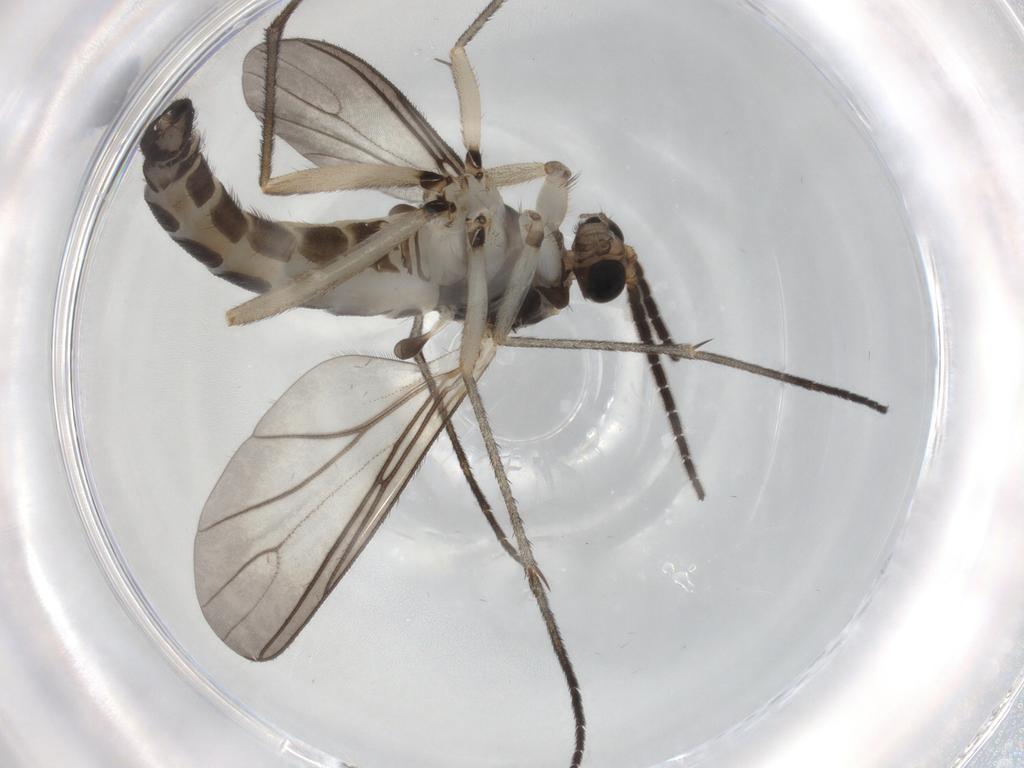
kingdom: Animalia
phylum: Arthropoda
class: Insecta
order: Diptera
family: Sciaridae
